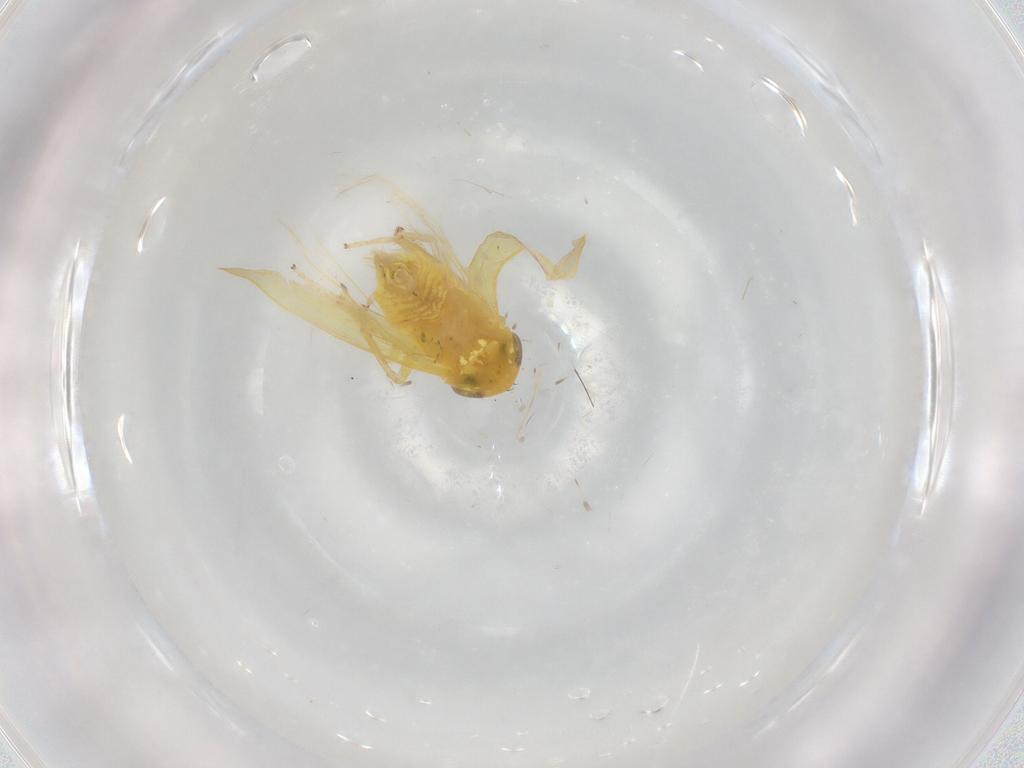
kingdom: Animalia
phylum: Arthropoda
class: Insecta
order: Hemiptera
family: Cicadellidae
